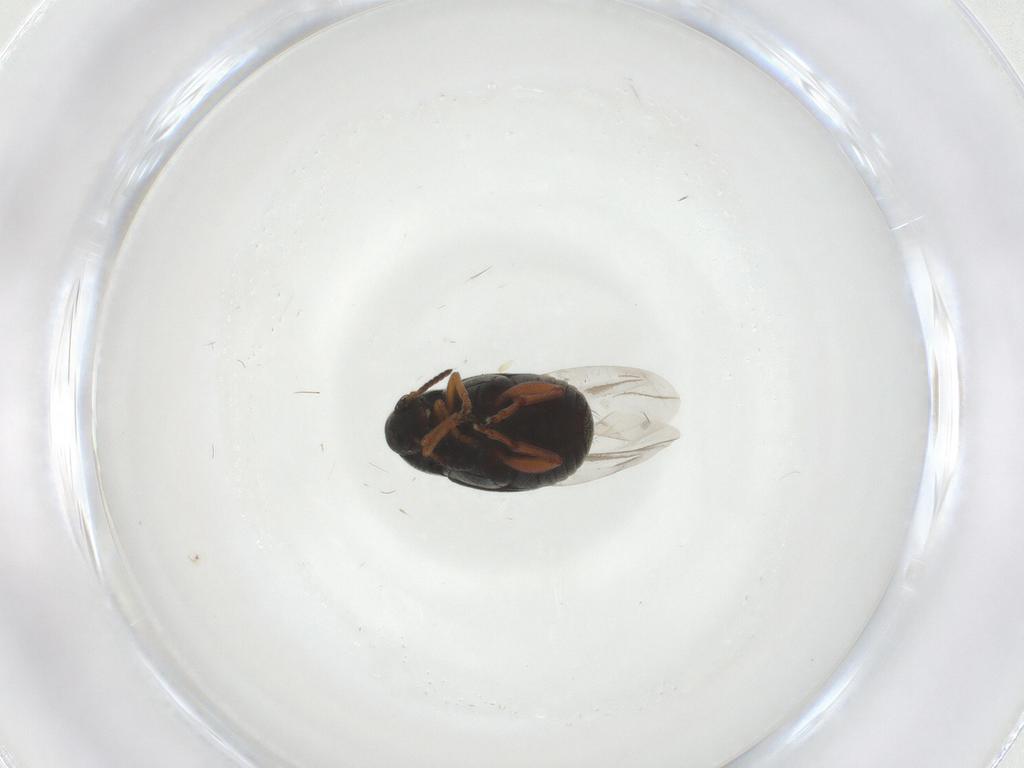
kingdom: Animalia
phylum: Arthropoda
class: Insecta
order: Coleoptera
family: Chrysomelidae
